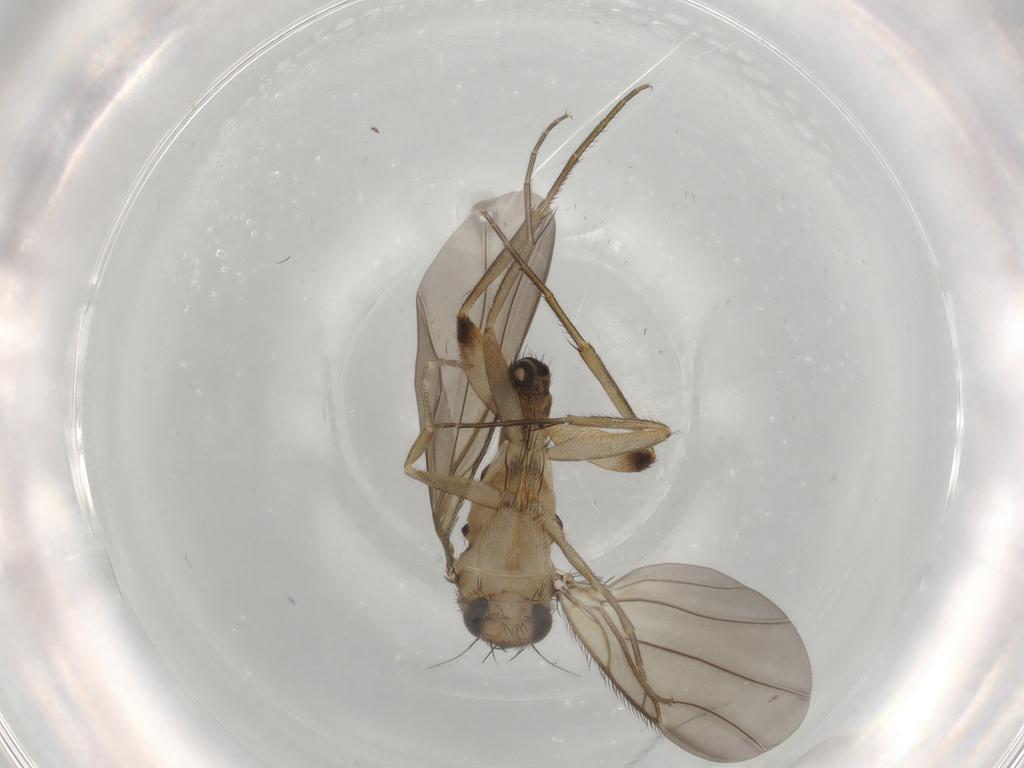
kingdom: Animalia
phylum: Arthropoda
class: Insecta
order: Diptera
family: Phoridae
